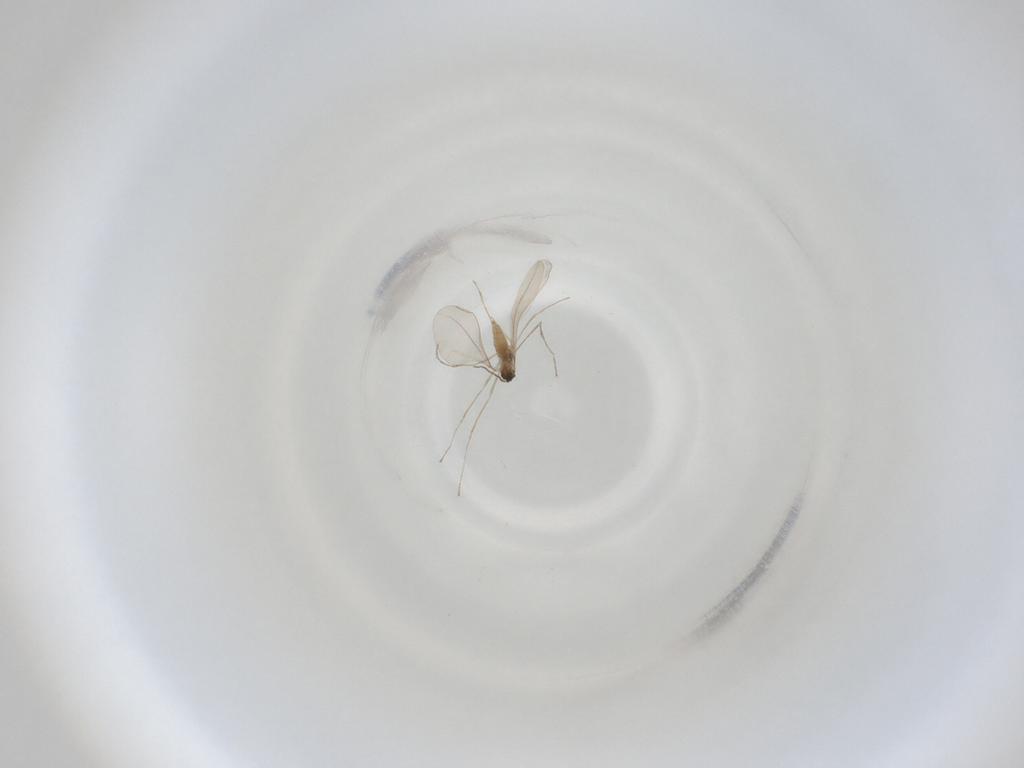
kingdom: Animalia
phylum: Arthropoda
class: Insecta
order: Diptera
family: Cecidomyiidae
